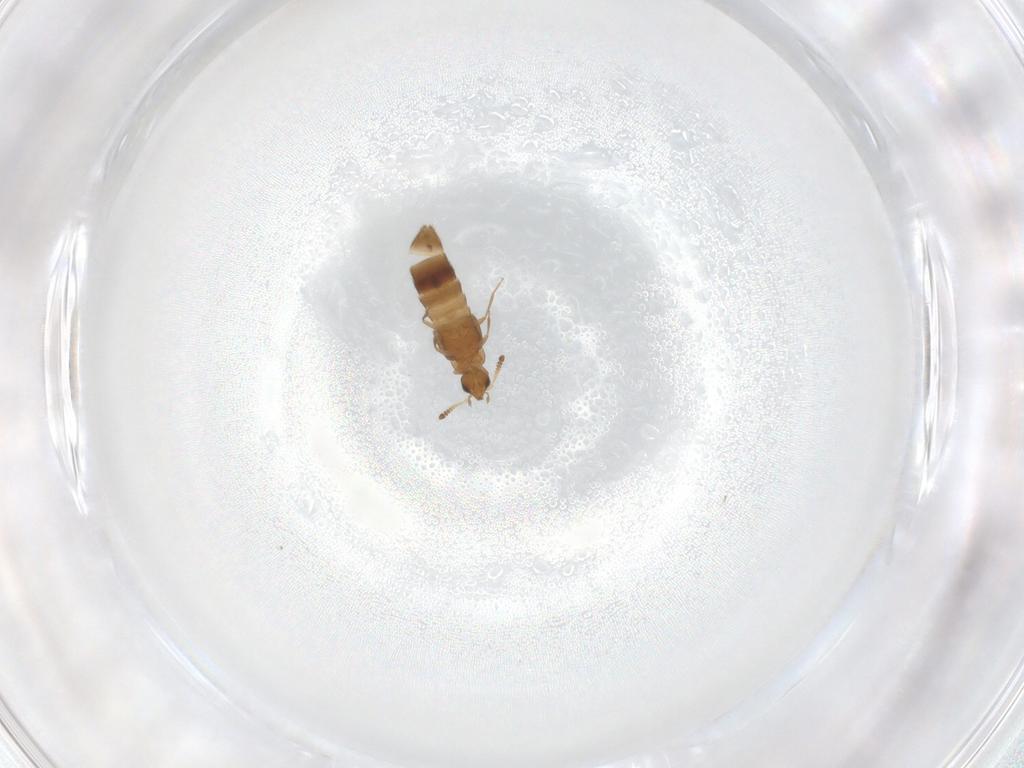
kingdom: Animalia
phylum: Arthropoda
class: Insecta
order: Coleoptera
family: Staphylinidae
